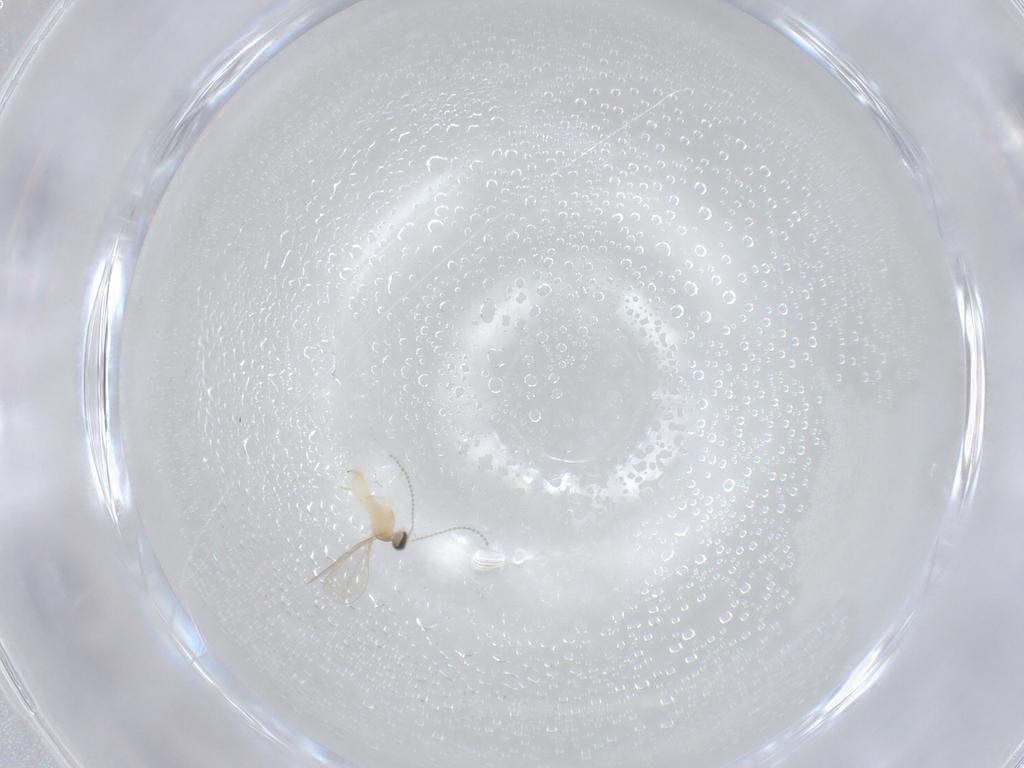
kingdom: Animalia
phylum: Arthropoda
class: Insecta
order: Diptera
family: Cecidomyiidae
